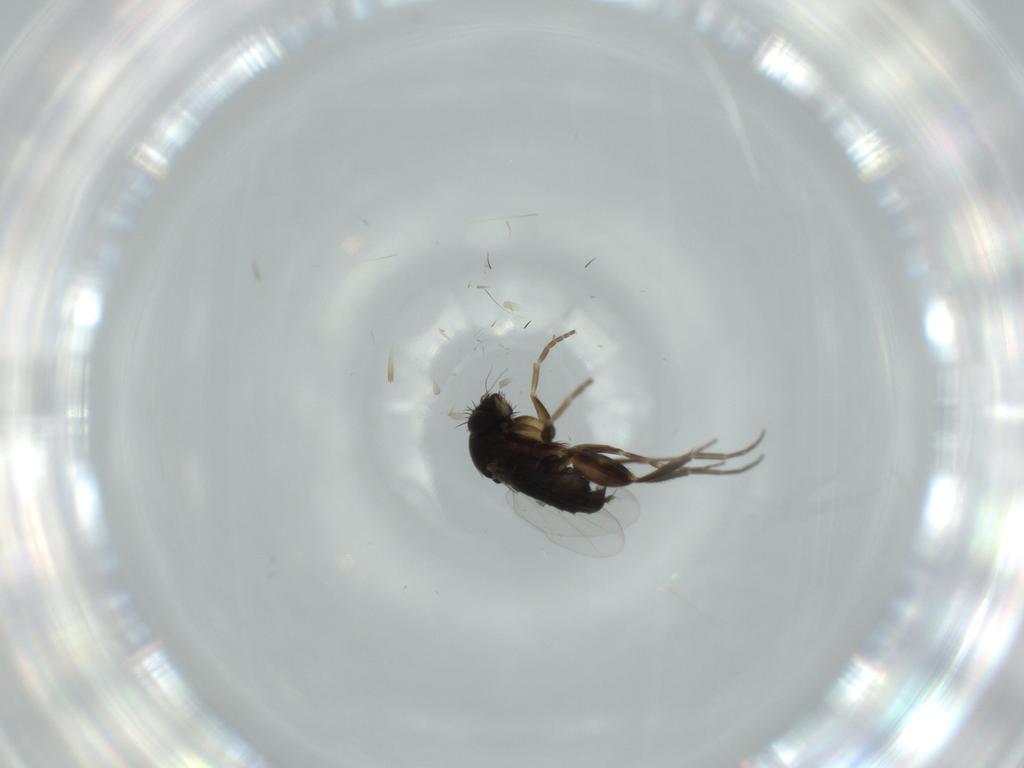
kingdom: Animalia
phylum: Arthropoda
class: Insecta
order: Diptera
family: Phoridae
